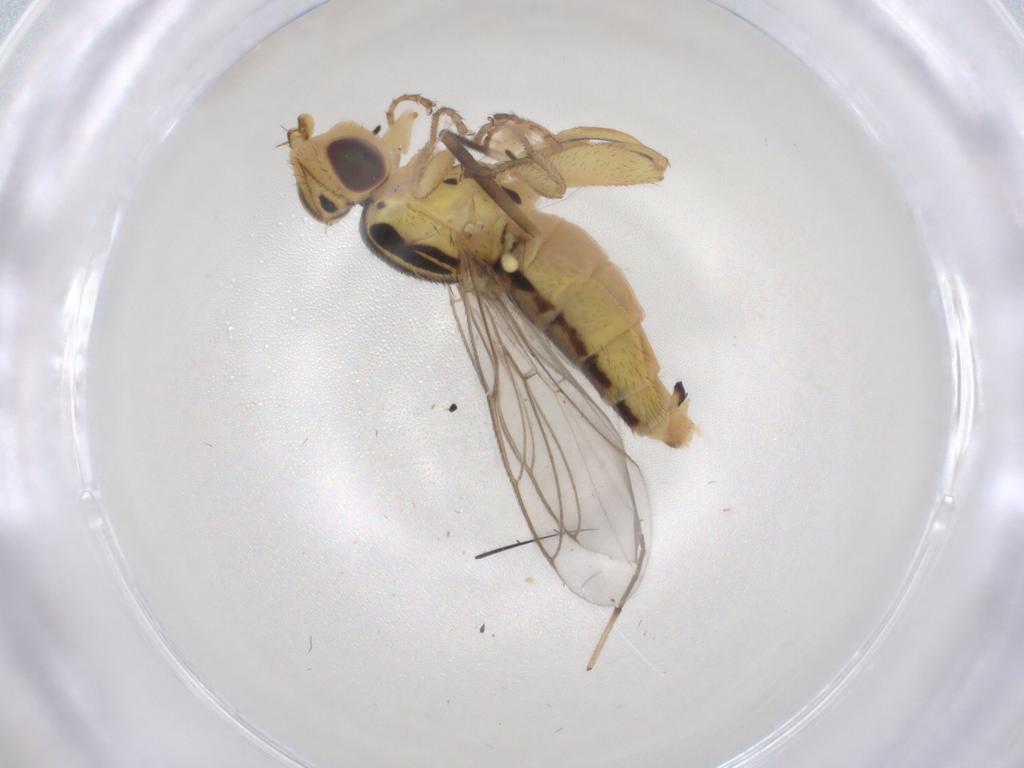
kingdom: Animalia
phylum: Arthropoda
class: Insecta
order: Diptera
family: Chloropidae
